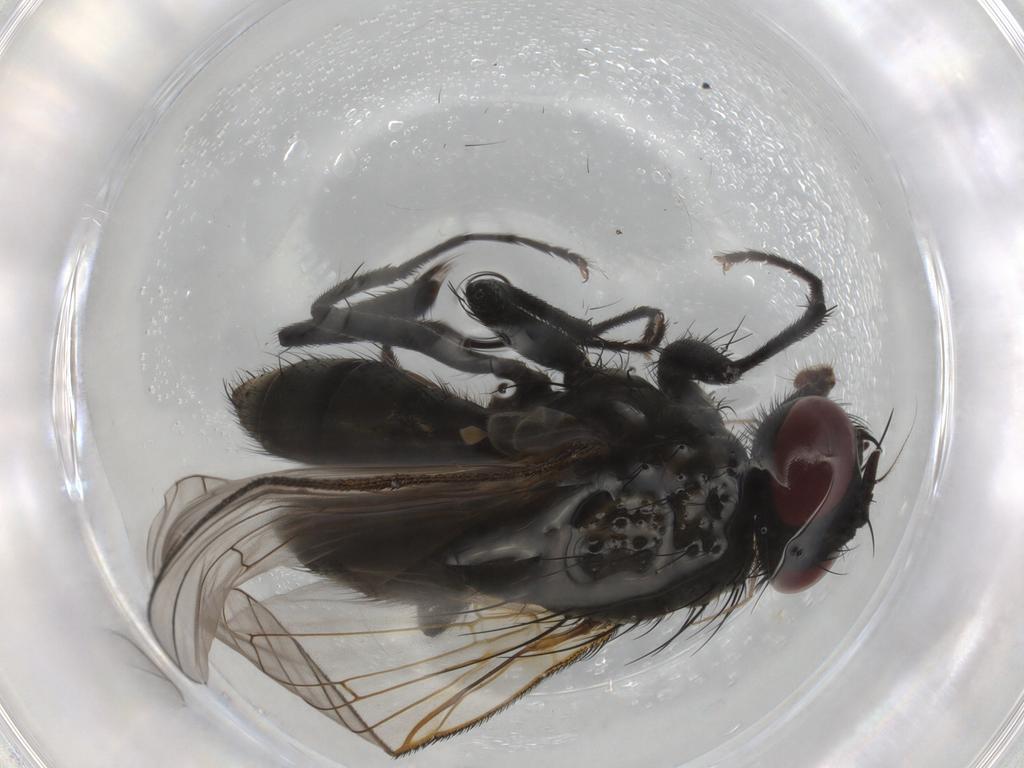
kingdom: Animalia
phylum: Arthropoda
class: Insecta
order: Diptera
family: Muscidae
